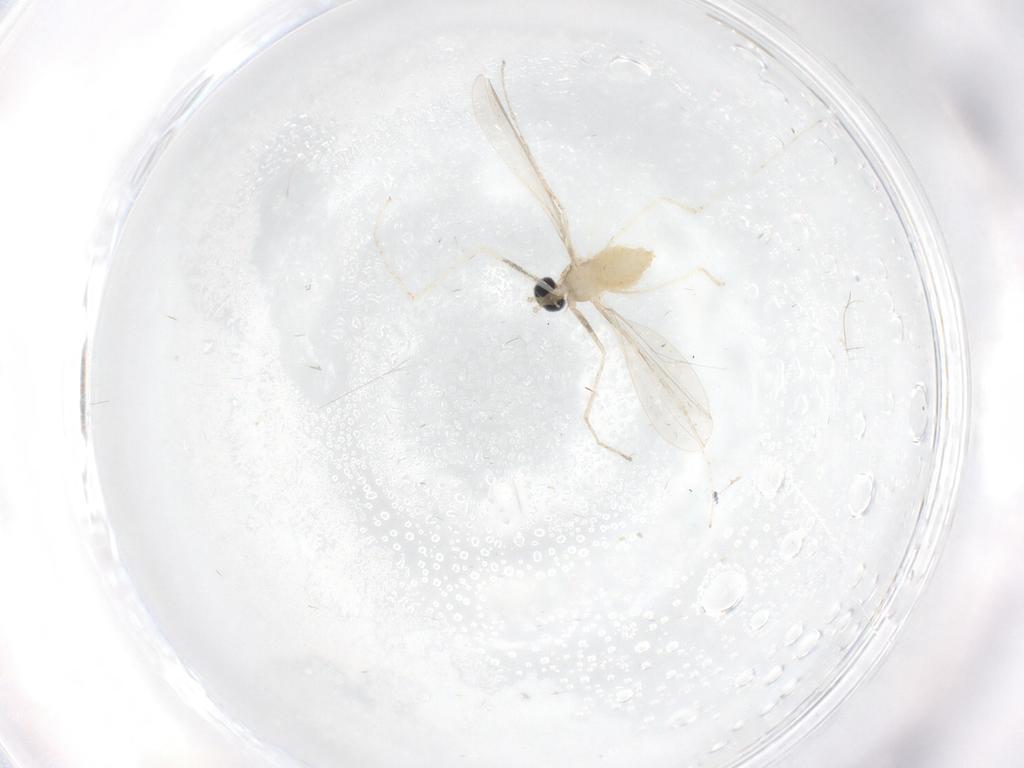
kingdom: Animalia
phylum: Arthropoda
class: Insecta
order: Diptera
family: Cecidomyiidae
